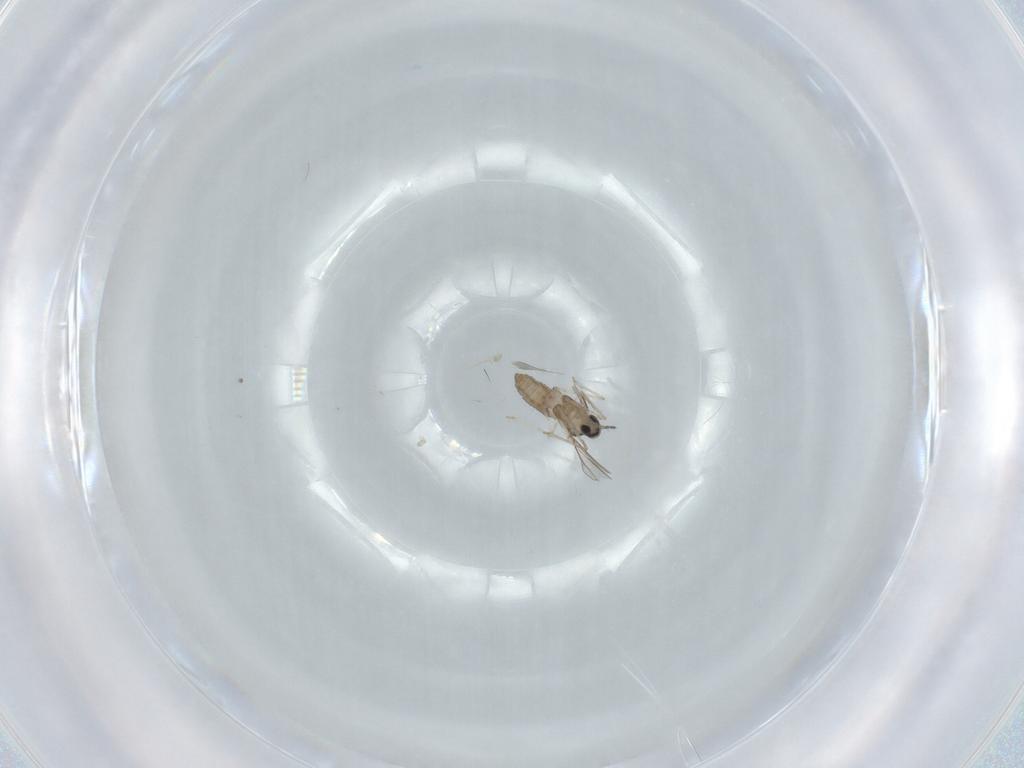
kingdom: Animalia
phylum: Arthropoda
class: Insecta
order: Diptera
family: Cecidomyiidae
